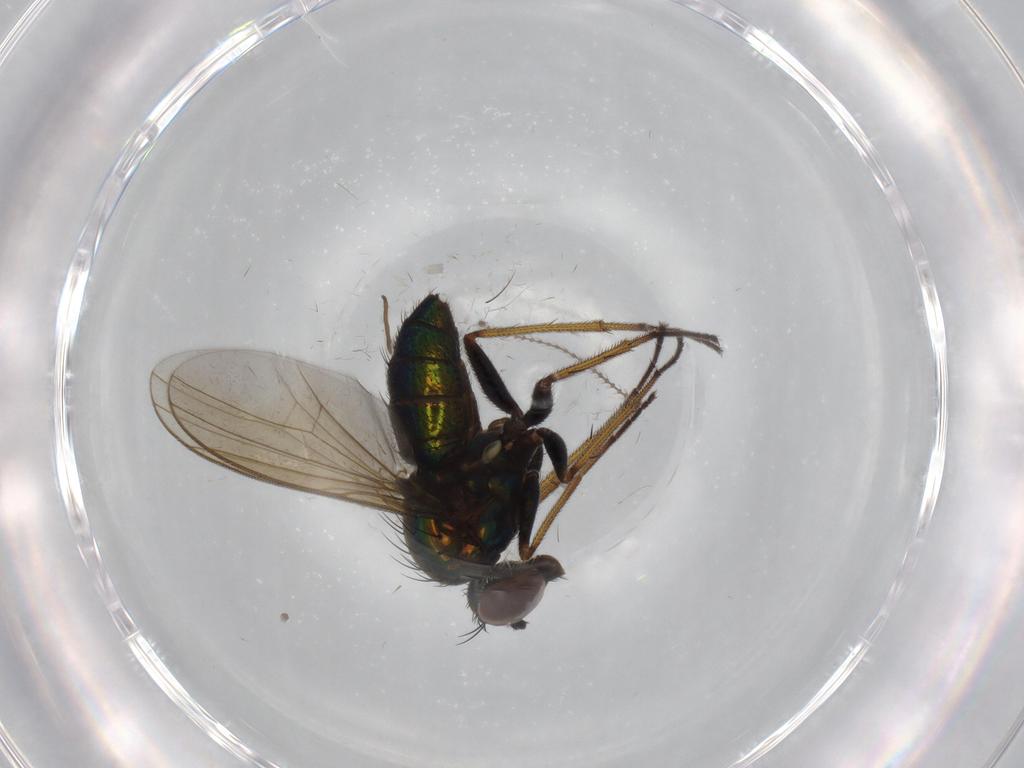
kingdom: Animalia
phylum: Arthropoda
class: Insecta
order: Diptera
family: Dolichopodidae
